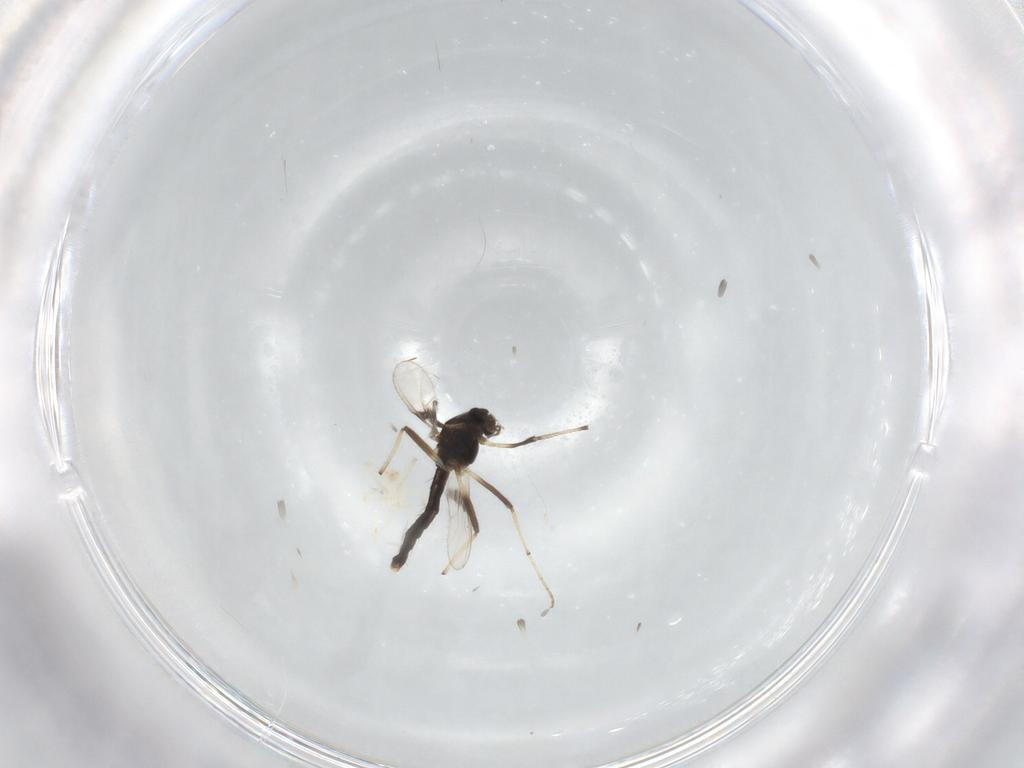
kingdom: Animalia
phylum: Arthropoda
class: Insecta
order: Diptera
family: Chironomidae
